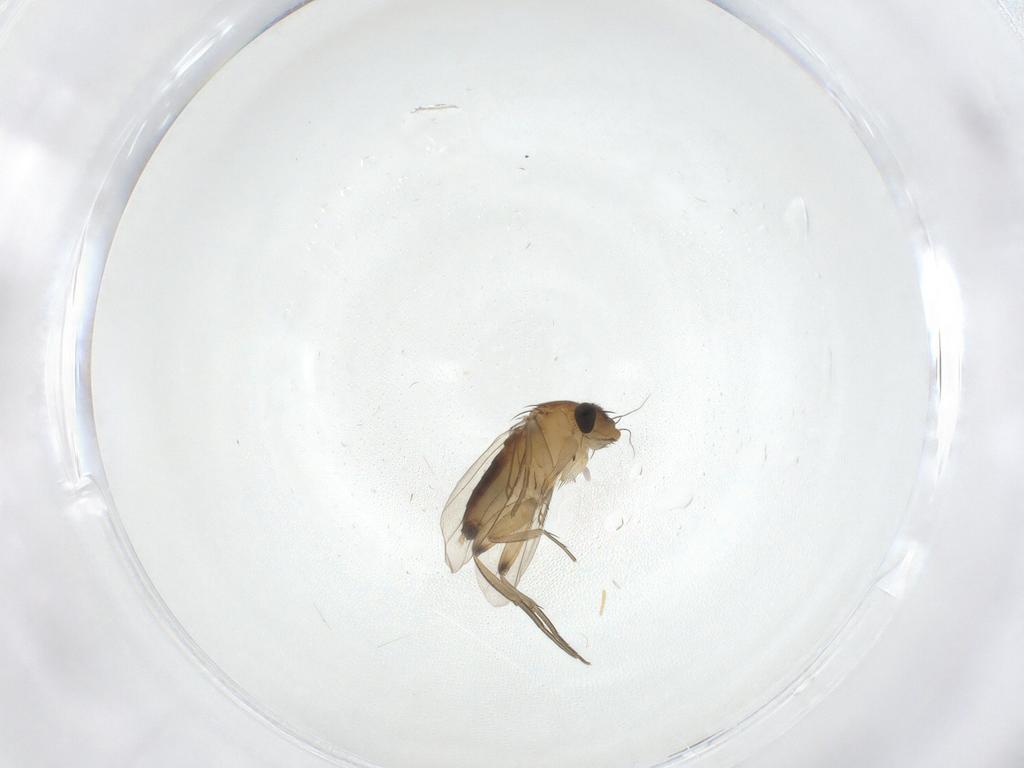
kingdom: Animalia
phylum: Arthropoda
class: Insecta
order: Diptera
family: Phoridae
